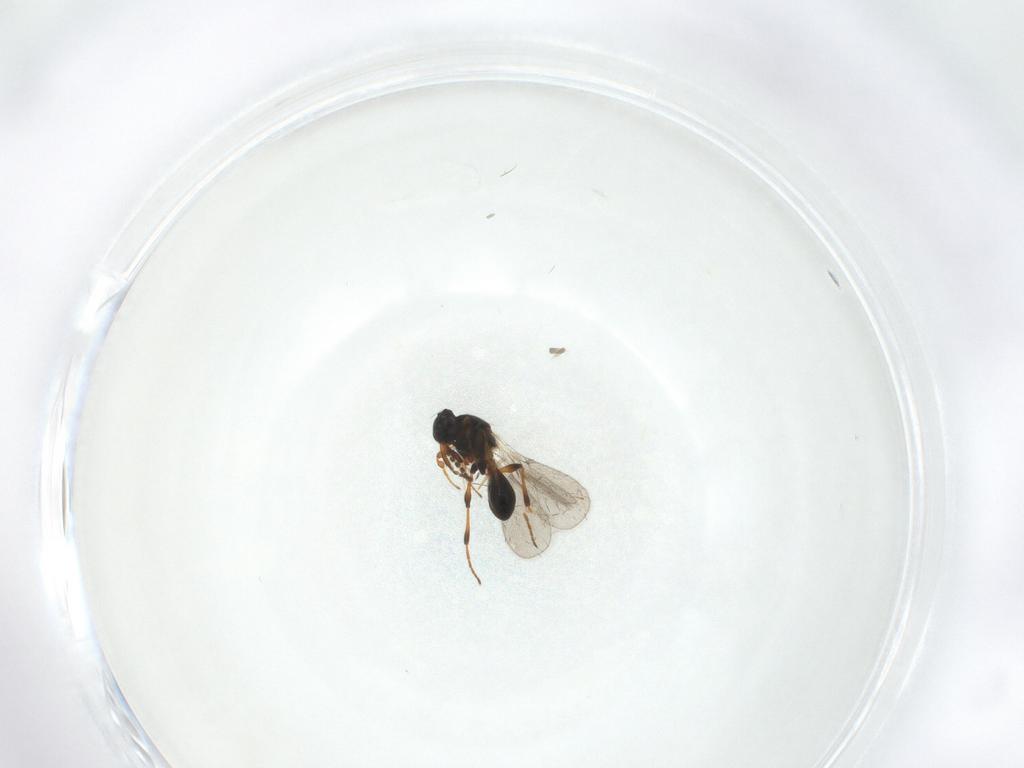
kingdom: Animalia
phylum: Arthropoda
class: Insecta
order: Hymenoptera
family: Platygastridae
